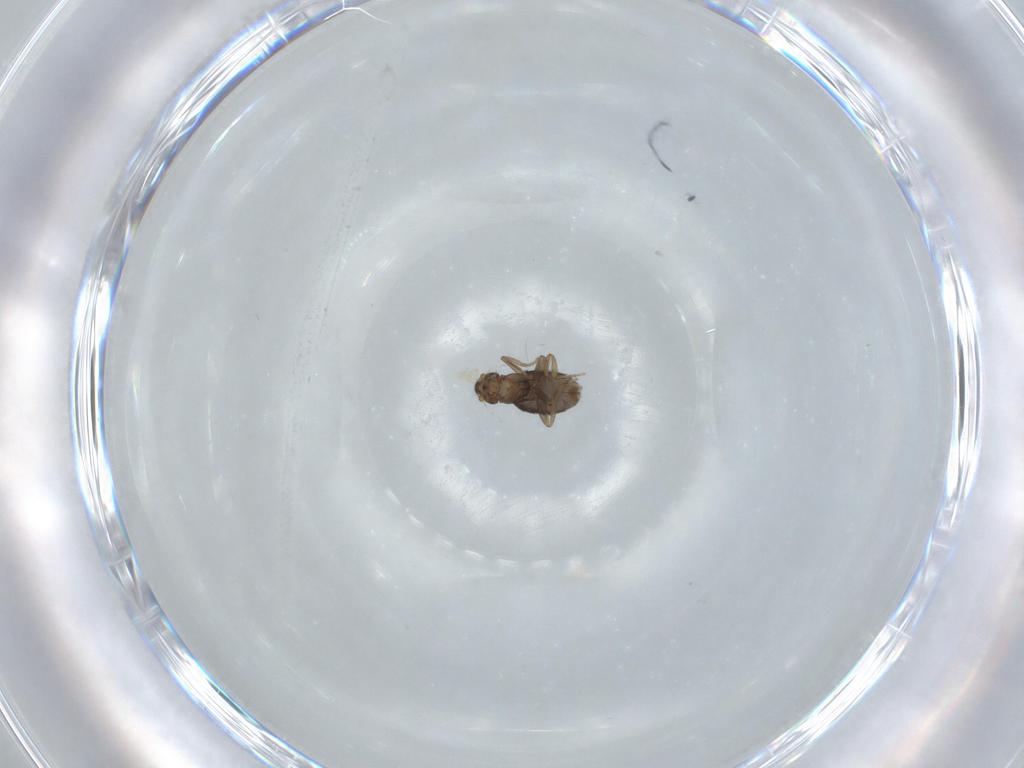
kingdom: Animalia
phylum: Arthropoda
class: Insecta
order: Diptera
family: Phoridae
